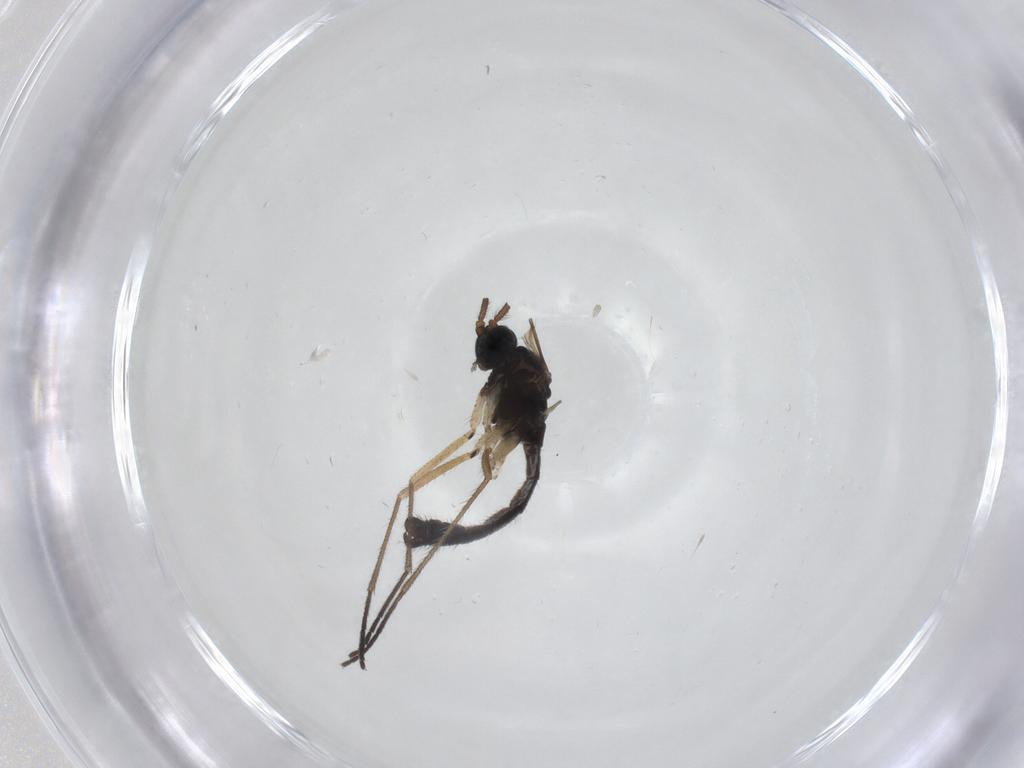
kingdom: Animalia
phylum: Arthropoda
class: Insecta
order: Diptera
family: Sciaridae
